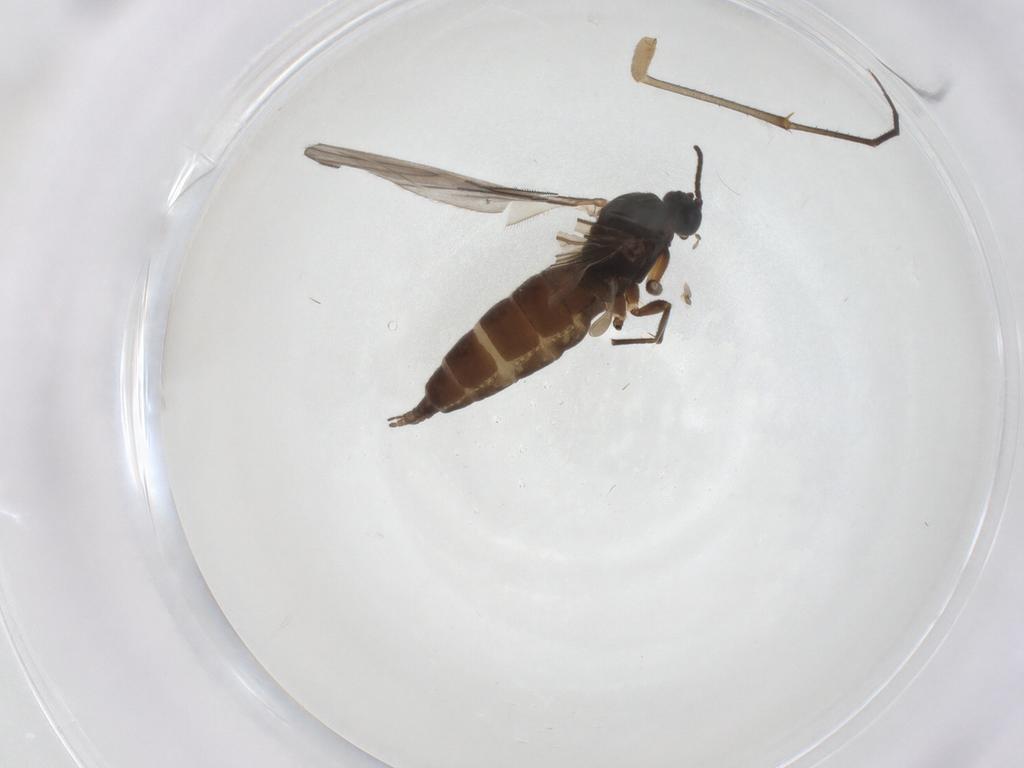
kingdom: Animalia
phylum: Arthropoda
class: Insecta
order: Diptera
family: Sciaridae
